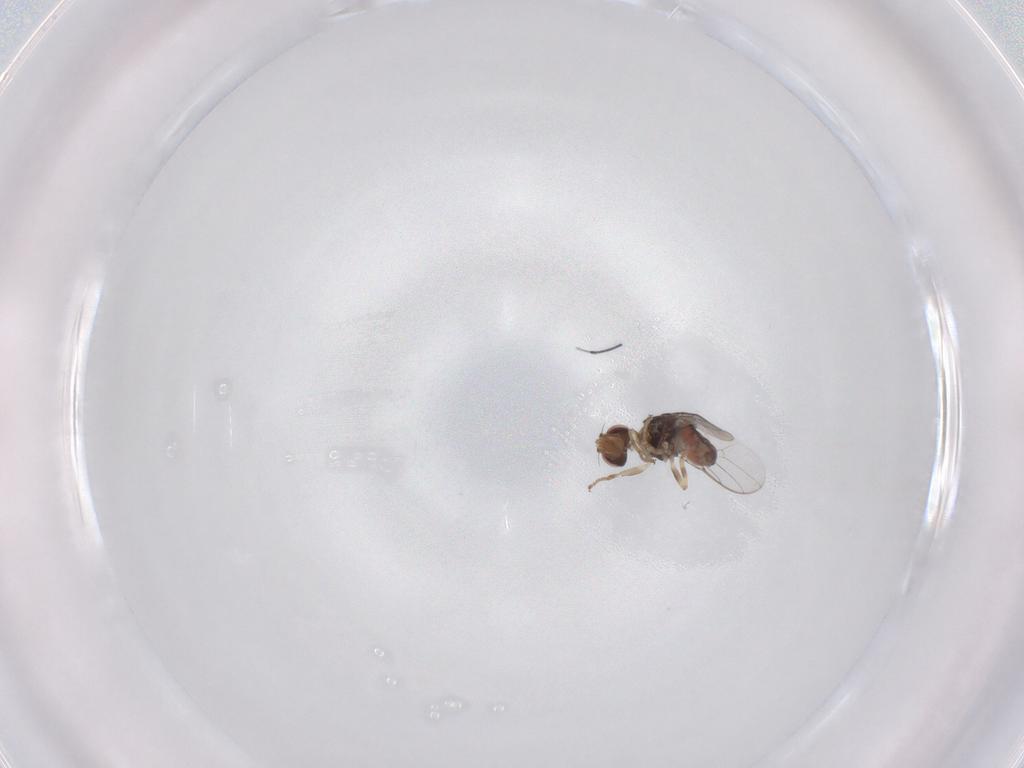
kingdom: Animalia
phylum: Arthropoda
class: Insecta
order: Diptera
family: Chloropidae
